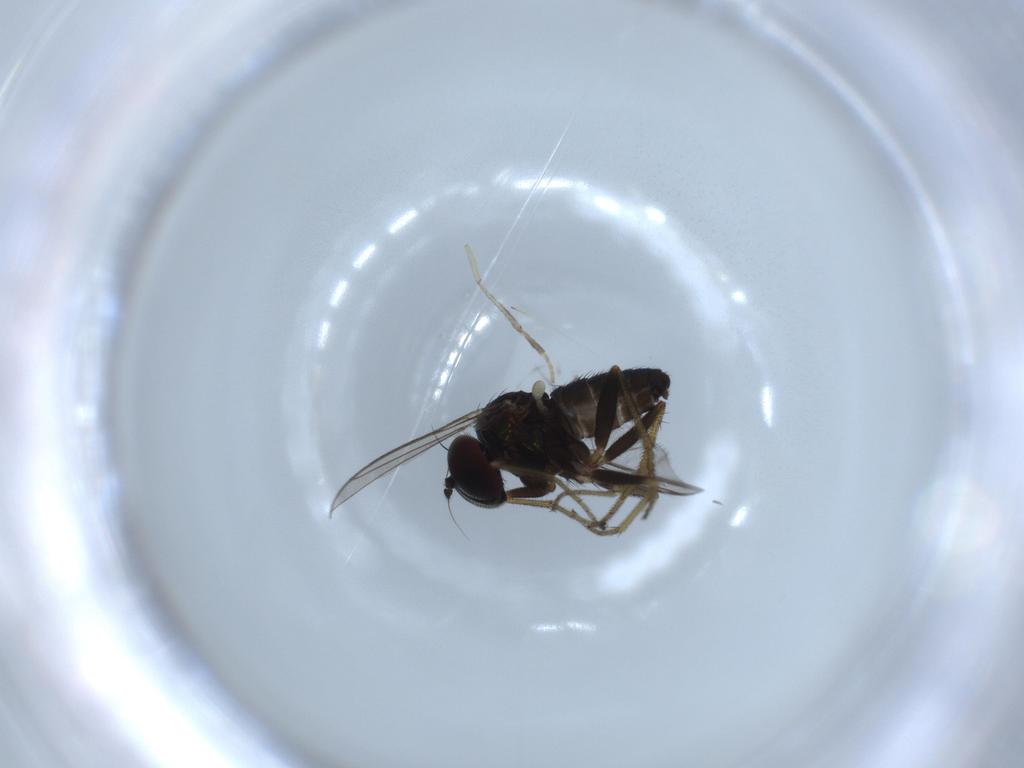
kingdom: Animalia
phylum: Arthropoda
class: Insecta
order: Diptera
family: Psychodidae
